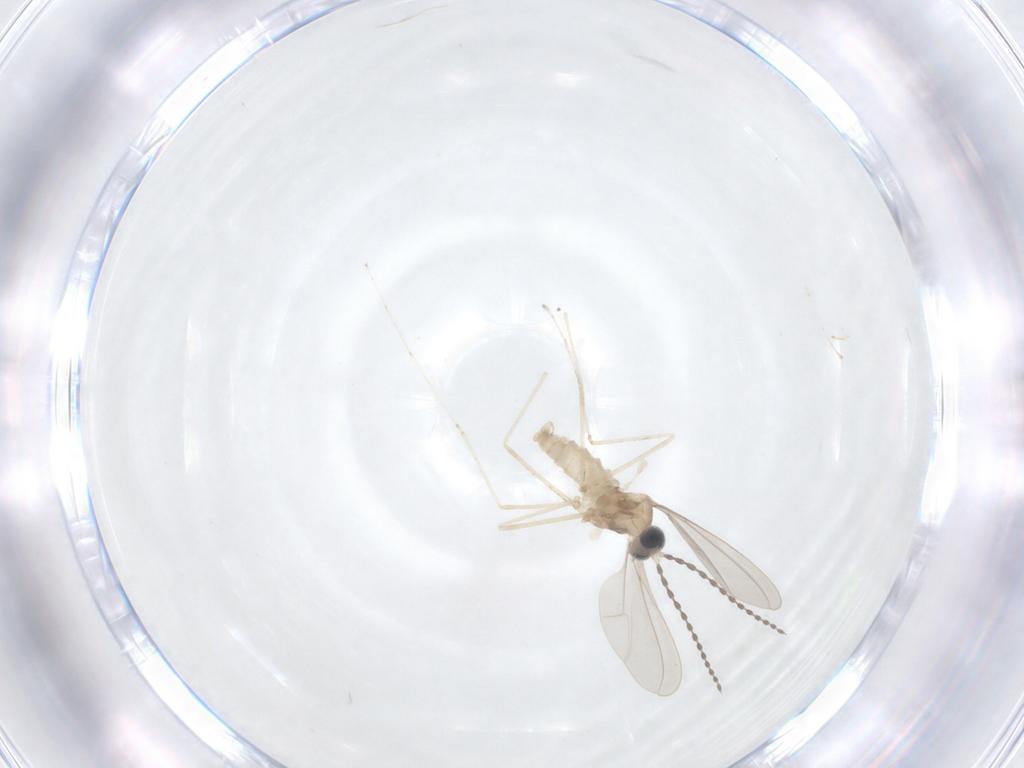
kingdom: Animalia
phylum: Arthropoda
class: Insecta
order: Diptera
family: Cecidomyiidae
